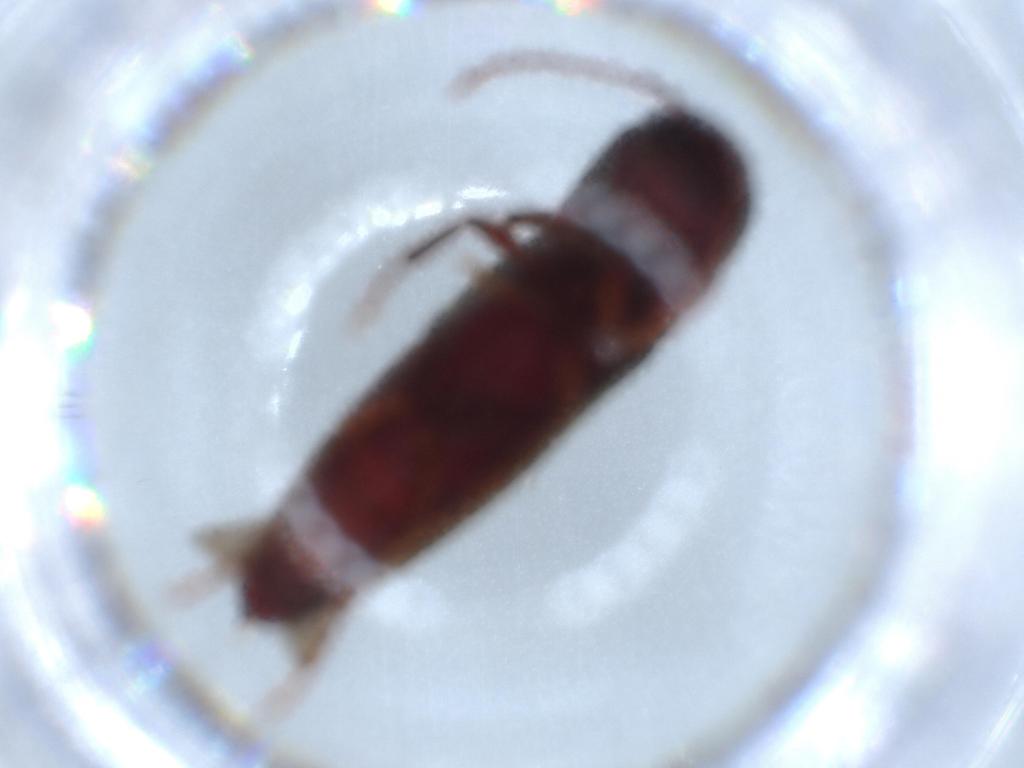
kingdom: Animalia
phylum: Arthropoda
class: Insecta
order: Coleoptera
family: Eucnemidae
